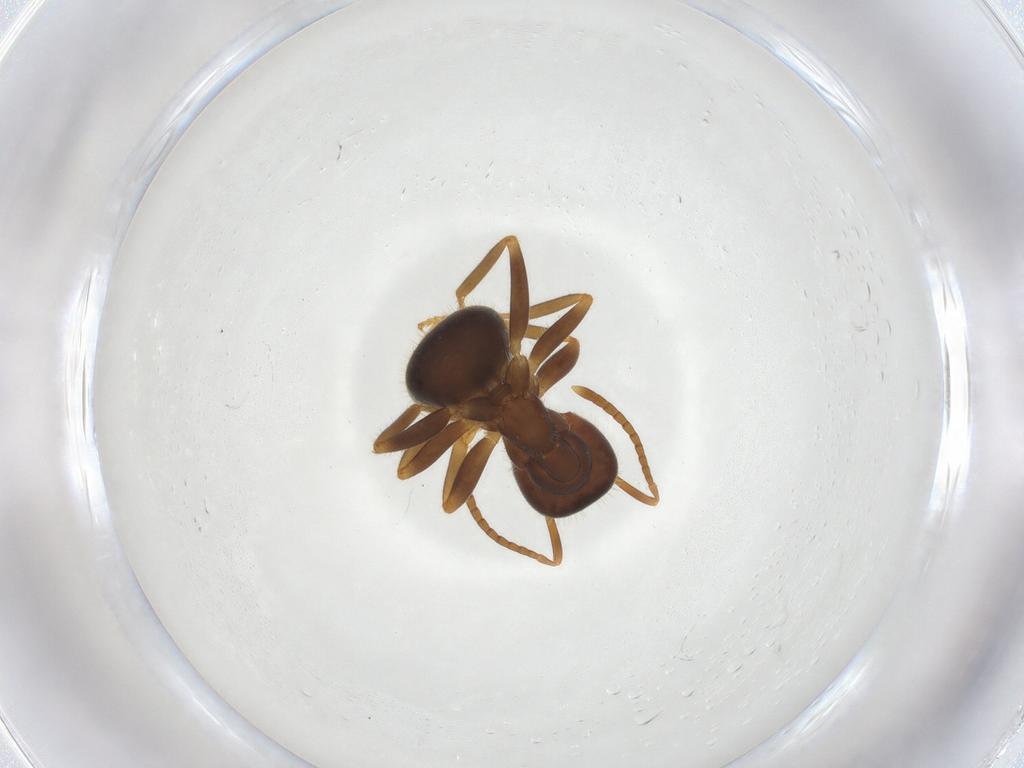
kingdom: Animalia
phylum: Arthropoda
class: Insecta
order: Hymenoptera
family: Formicidae
